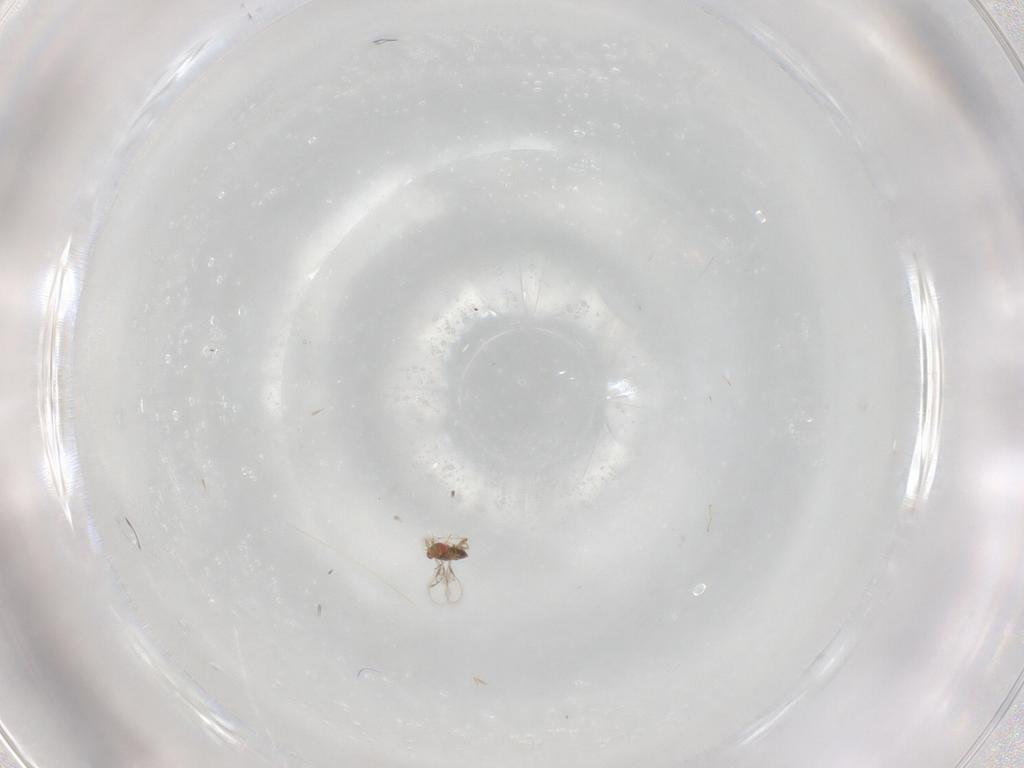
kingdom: Animalia
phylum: Arthropoda
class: Insecta
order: Hymenoptera
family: Trichogrammatidae
